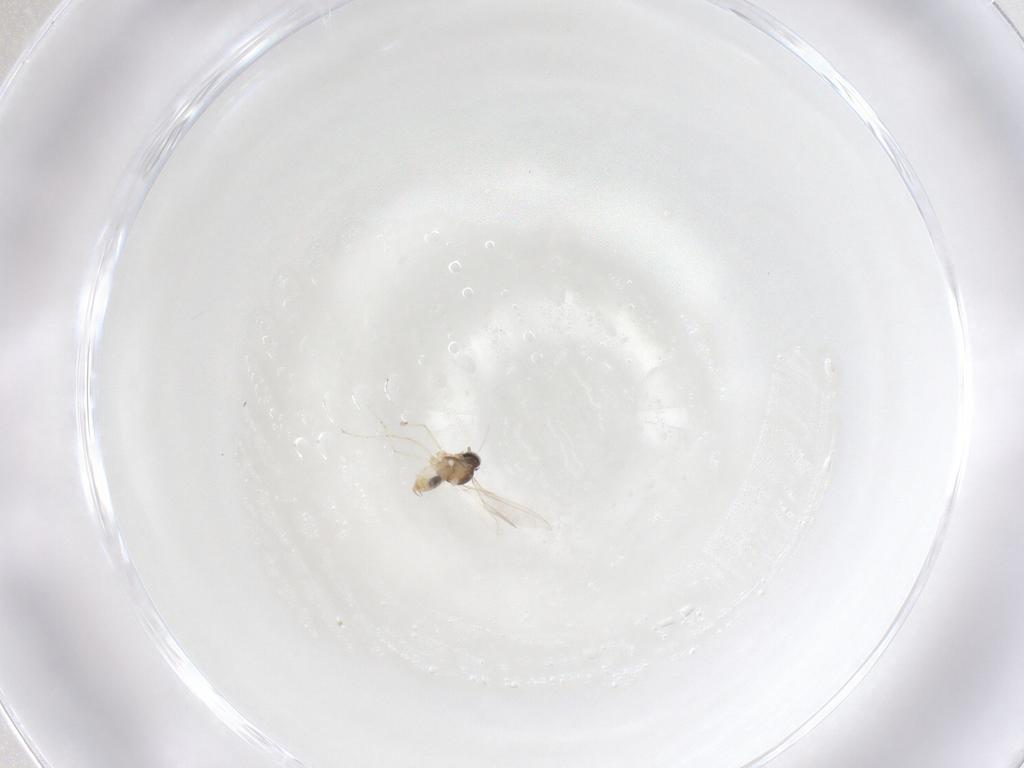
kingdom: Animalia
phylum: Arthropoda
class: Insecta
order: Diptera
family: Cecidomyiidae
